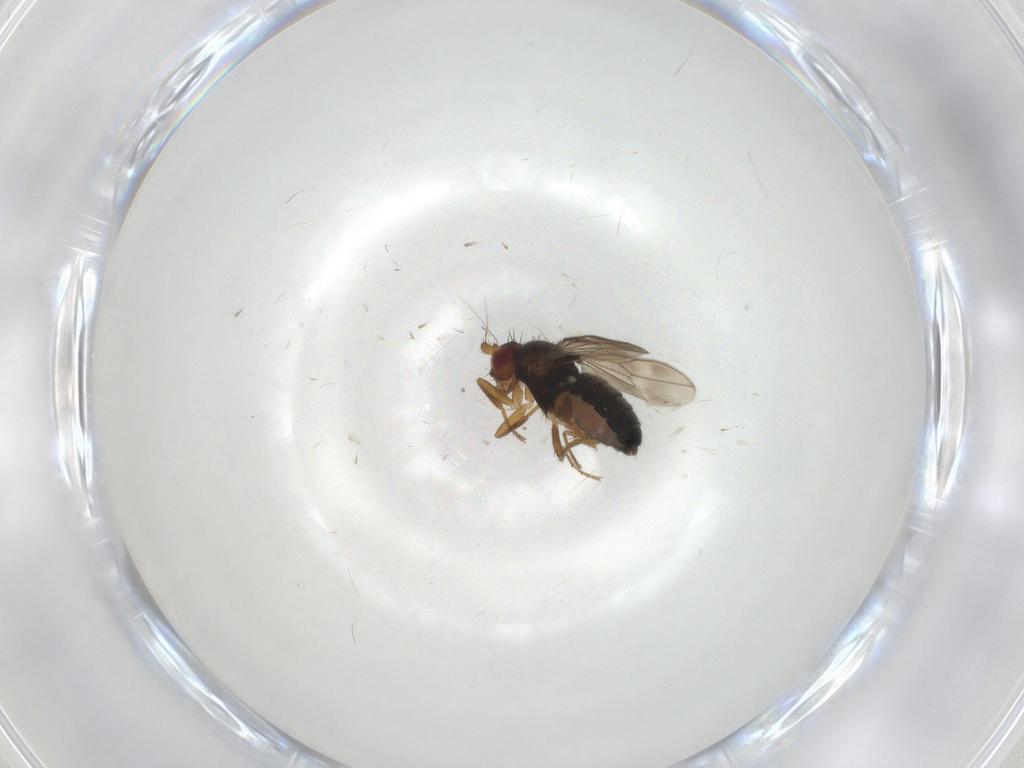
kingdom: Animalia
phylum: Arthropoda
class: Insecta
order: Diptera
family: Sphaeroceridae
